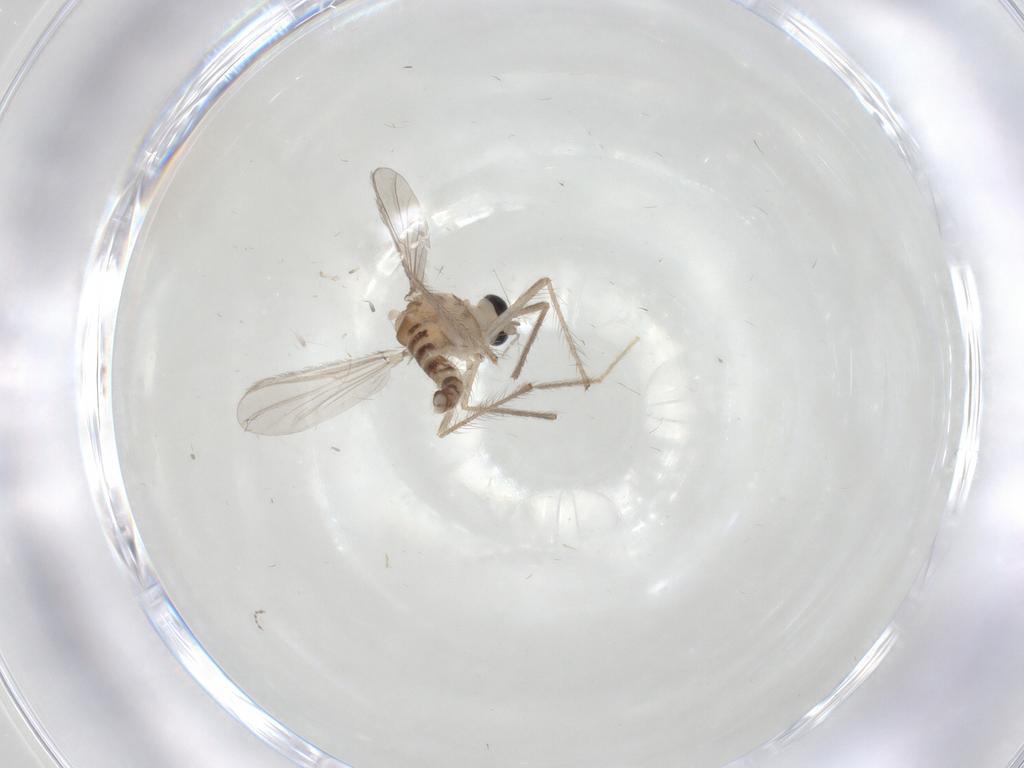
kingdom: Animalia
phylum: Arthropoda
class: Insecta
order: Diptera
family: Chironomidae
